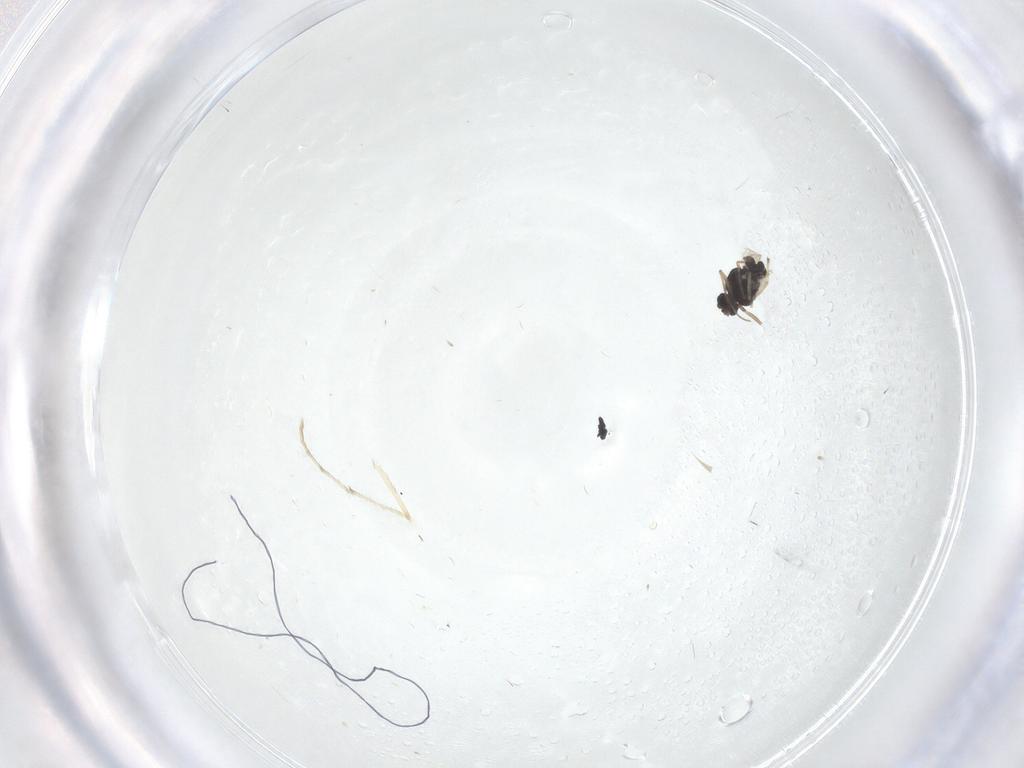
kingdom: Animalia
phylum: Arthropoda
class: Insecta
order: Diptera
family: Chironomidae
